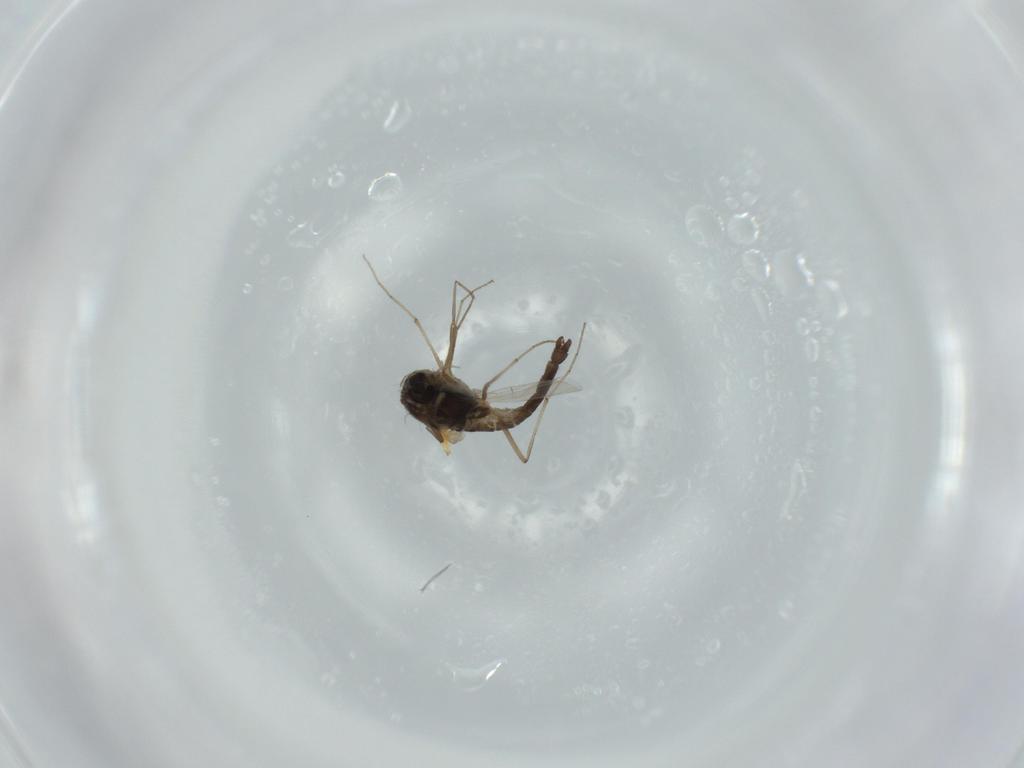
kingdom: Animalia
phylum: Arthropoda
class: Insecta
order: Diptera
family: Chironomidae
